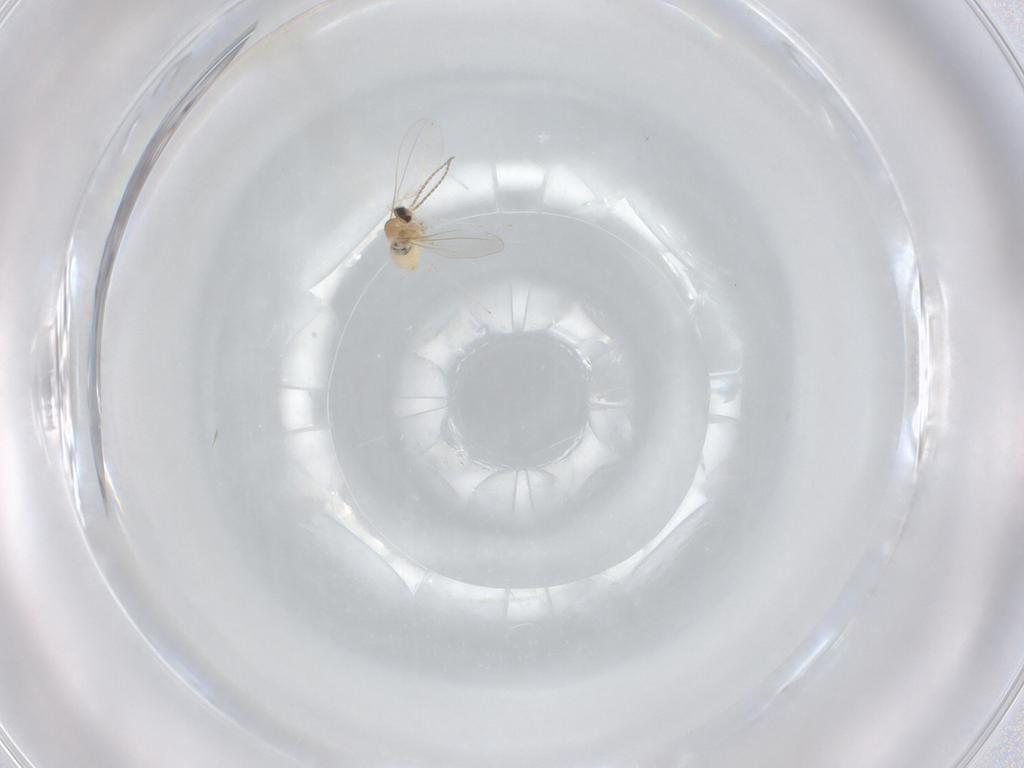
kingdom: Animalia
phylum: Arthropoda
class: Insecta
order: Diptera
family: Cecidomyiidae
